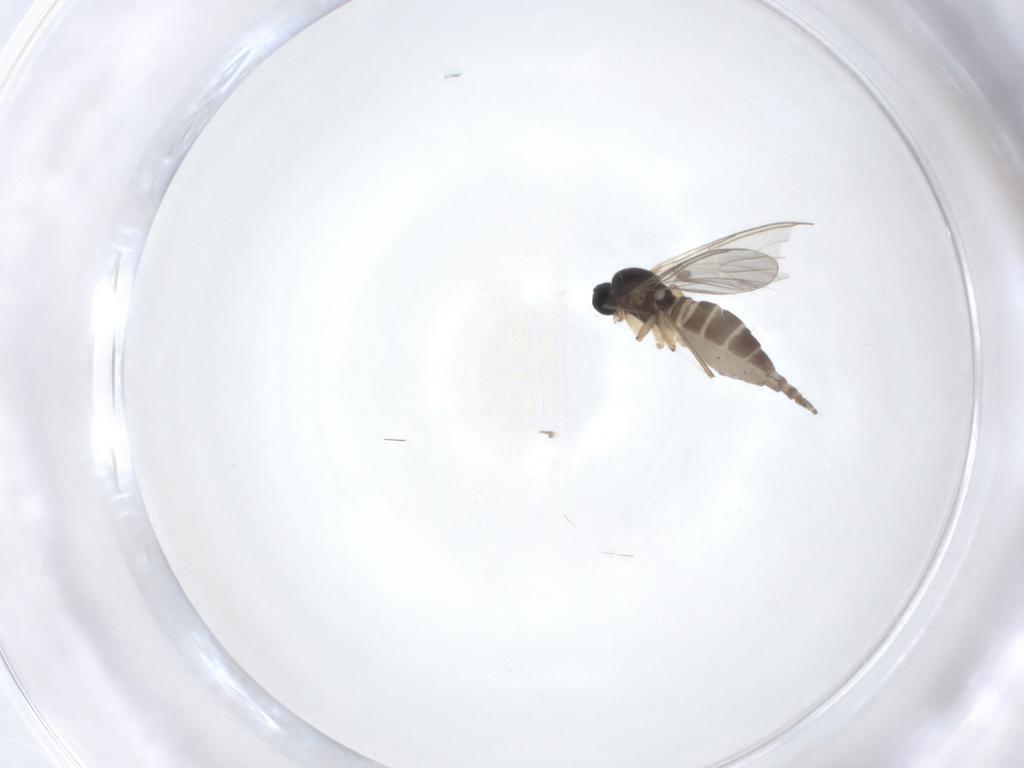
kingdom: Animalia
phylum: Arthropoda
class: Insecta
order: Diptera
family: Sciaridae
